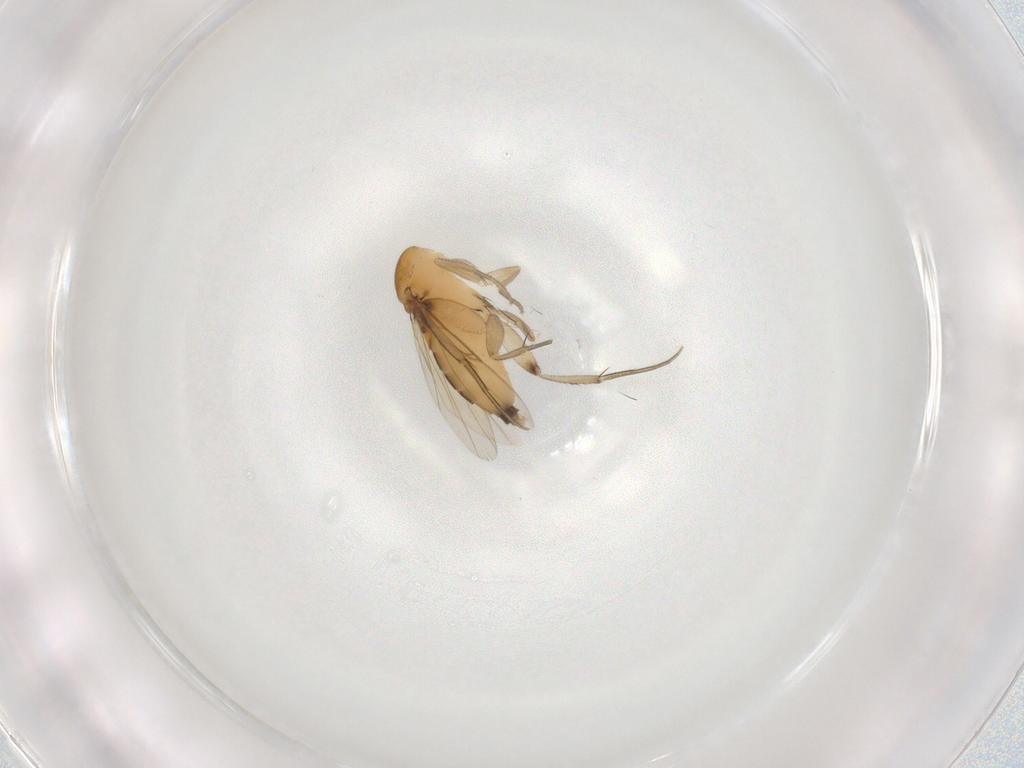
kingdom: Animalia
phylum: Arthropoda
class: Insecta
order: Diptera
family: Phoridae
